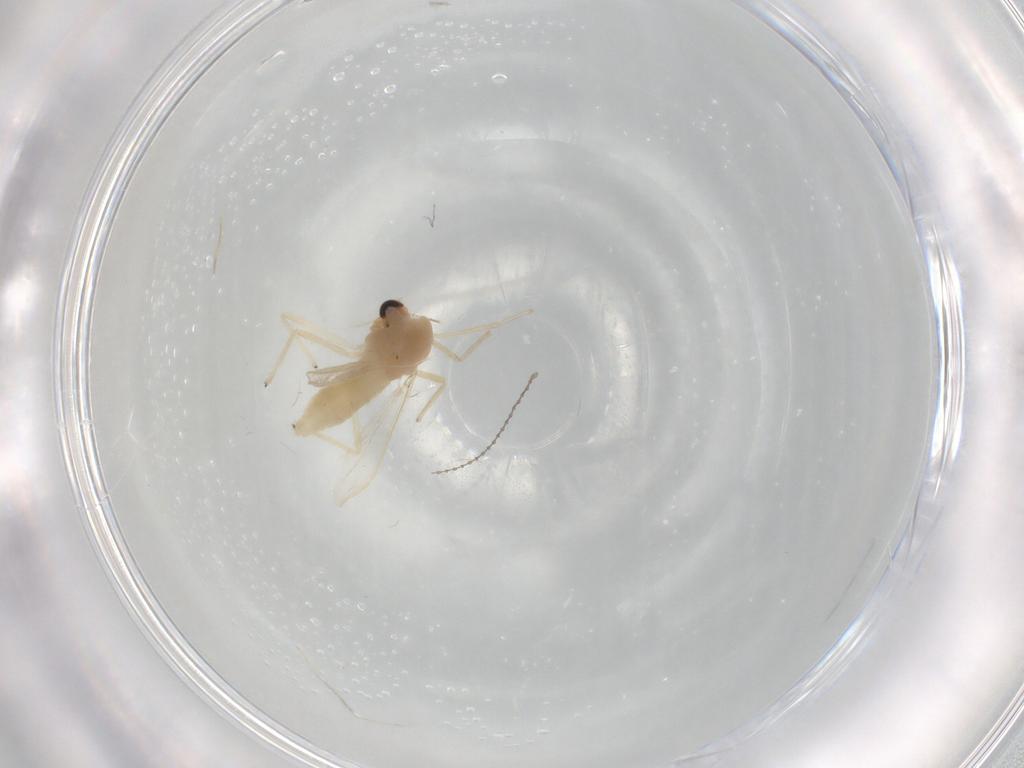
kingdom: Animalia
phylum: Arthropoda
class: Insecta
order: Diptera
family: Chironomidae
